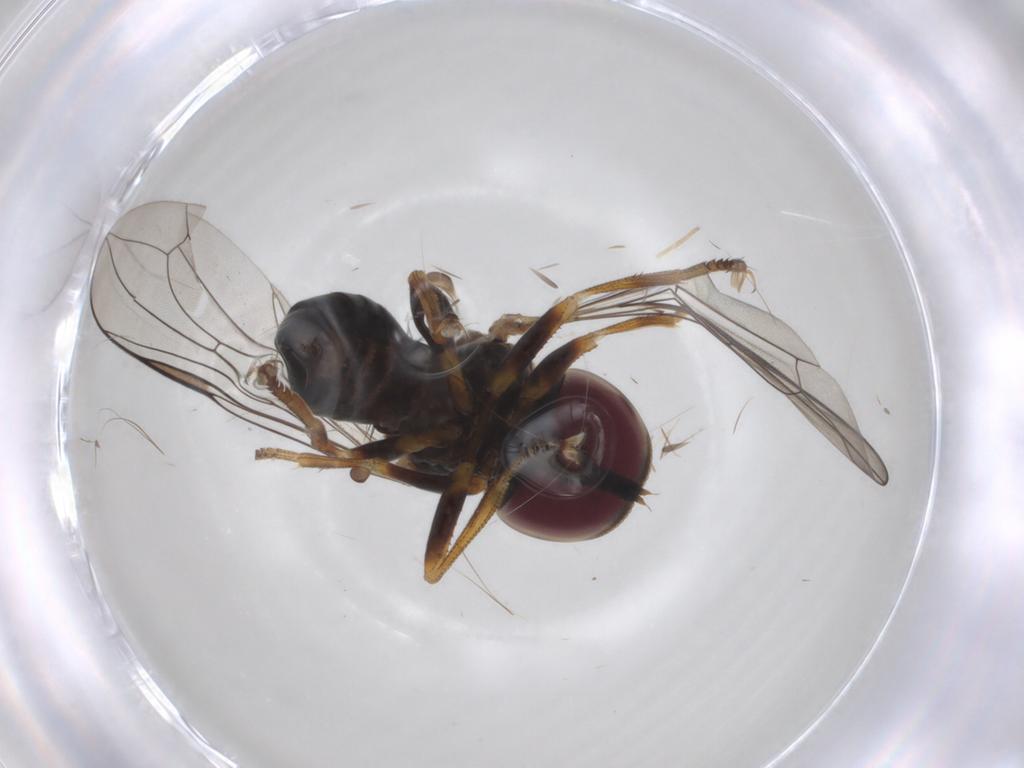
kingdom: Animalia
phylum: Arthropoda
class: Insecta
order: Diptera
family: Pipunculidae
